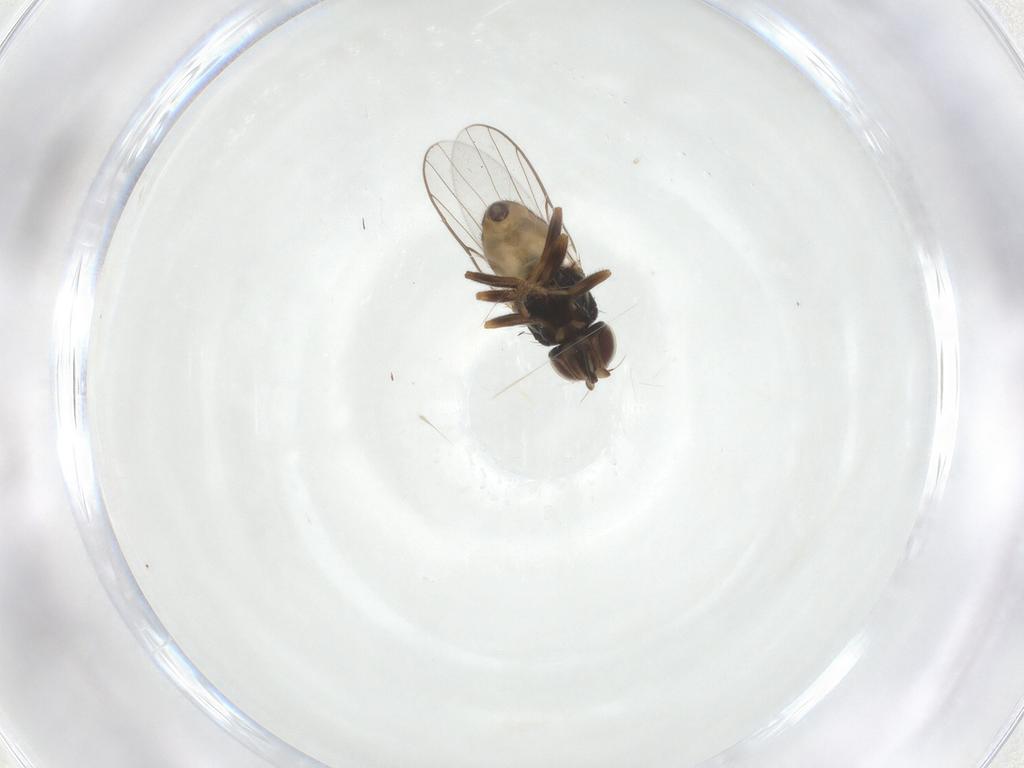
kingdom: Animalia
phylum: Arthropoda
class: Insecta
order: Diptera
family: Chloropidae
